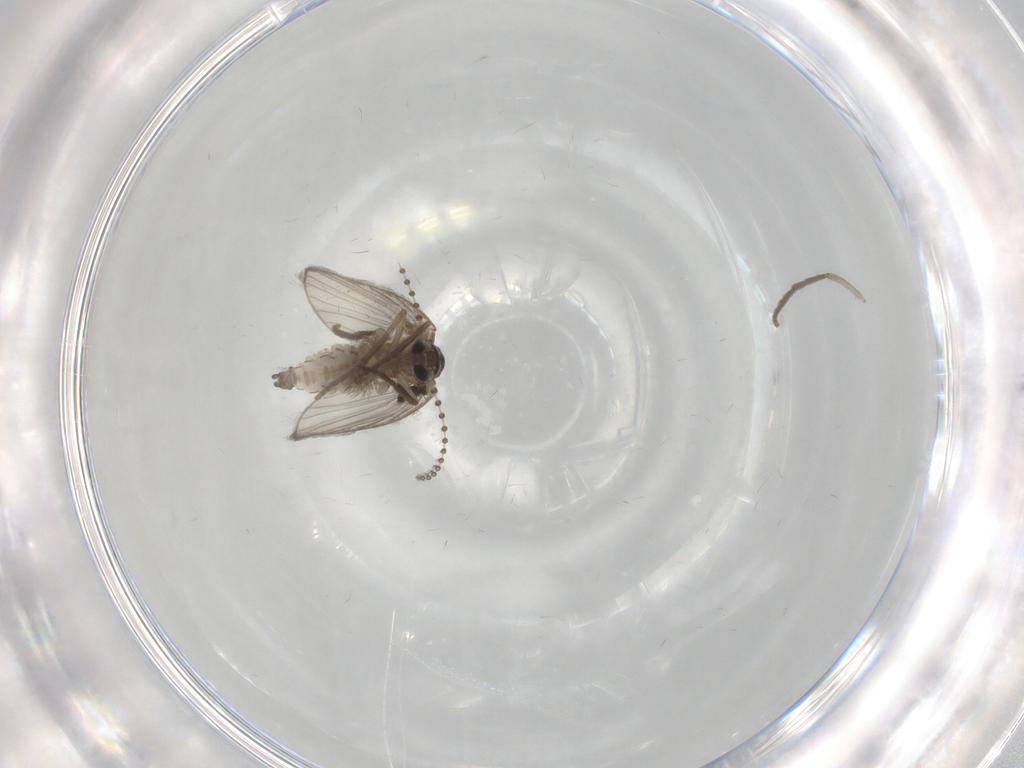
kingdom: Animalia
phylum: Arthropoda
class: Insecta
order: Diptera
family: Psychodidae
